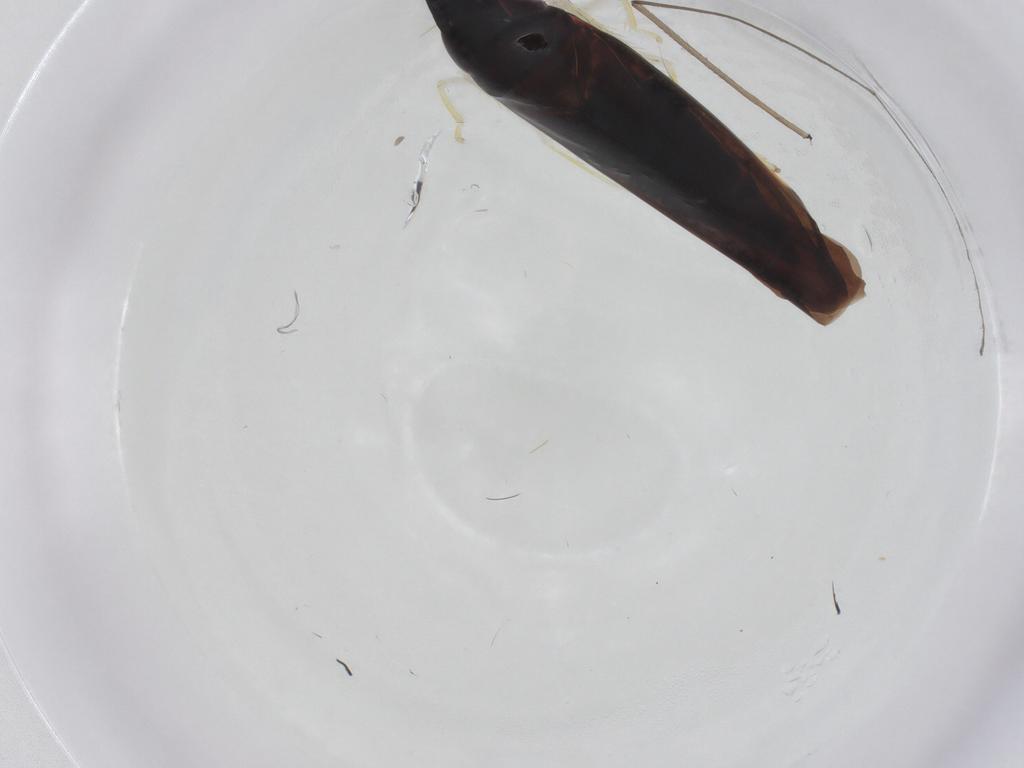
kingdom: Animalia
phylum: Arthropoda
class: Insecta
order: Hemiptera
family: Cicadellidae
